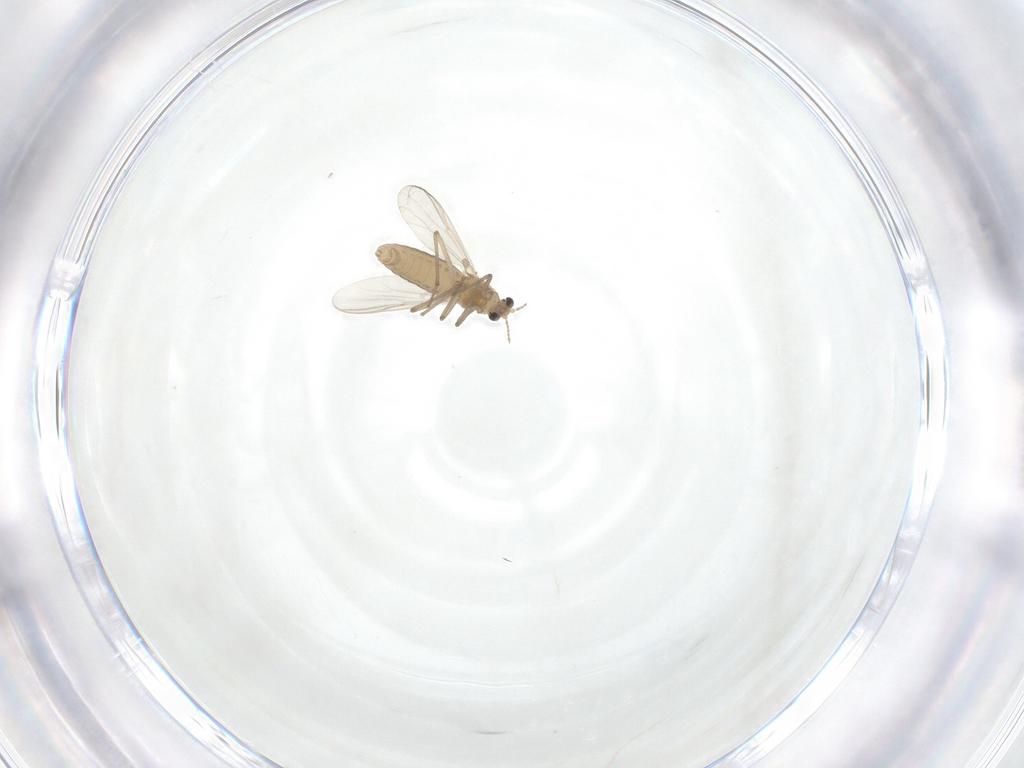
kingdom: Animalia
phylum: Arthropoda
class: Insecta
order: Diptera
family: Chironomidae
